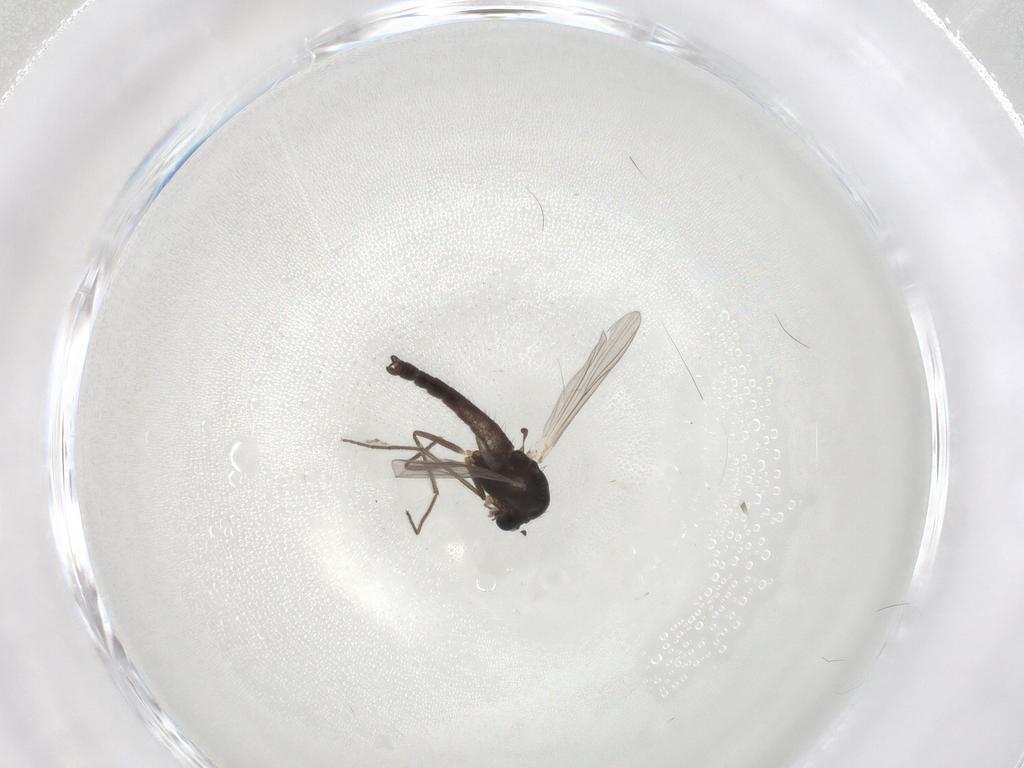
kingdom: Animalia
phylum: Arthropoda
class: Insecta
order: Diptera
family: Chironomidae
